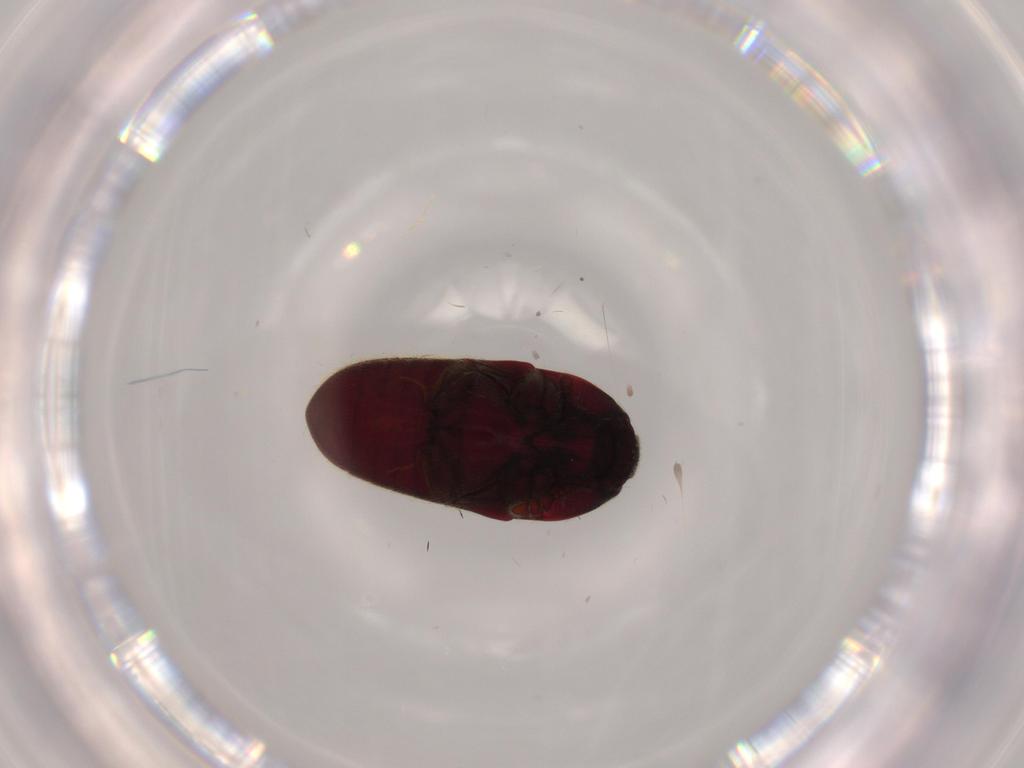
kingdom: Animalia
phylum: Arthropoda
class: Insecta
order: Coleoptera
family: Throscidae
